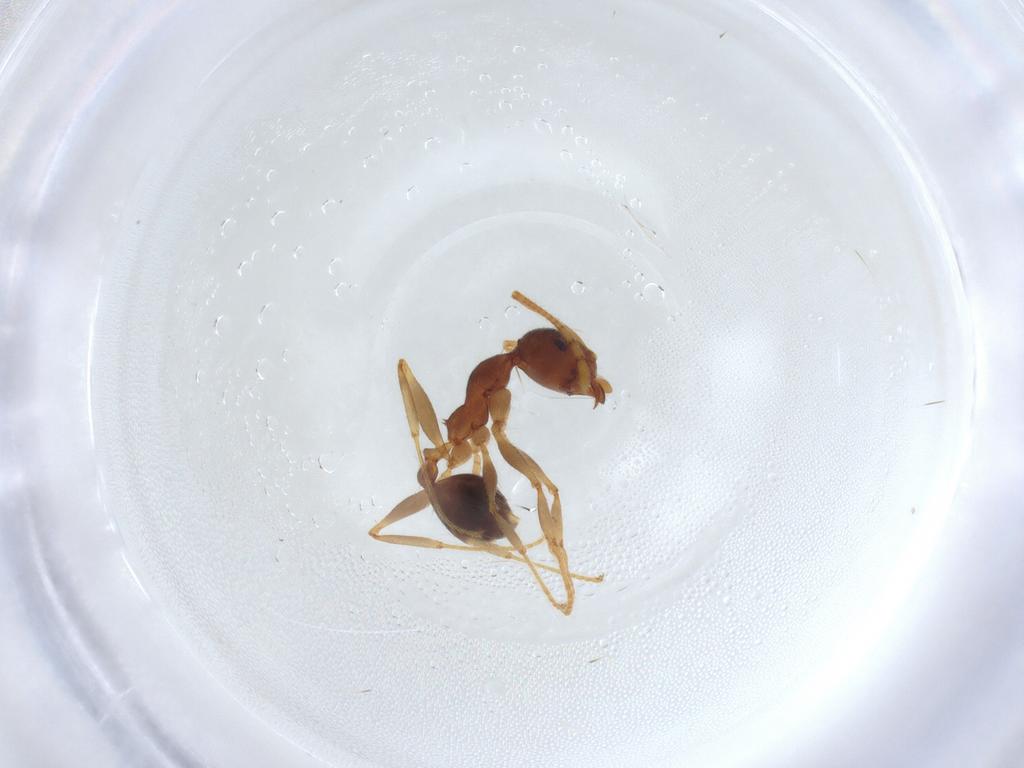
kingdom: Animalia
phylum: Arthropoda
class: Insecta
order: Hymenoptera
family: Formicidae
